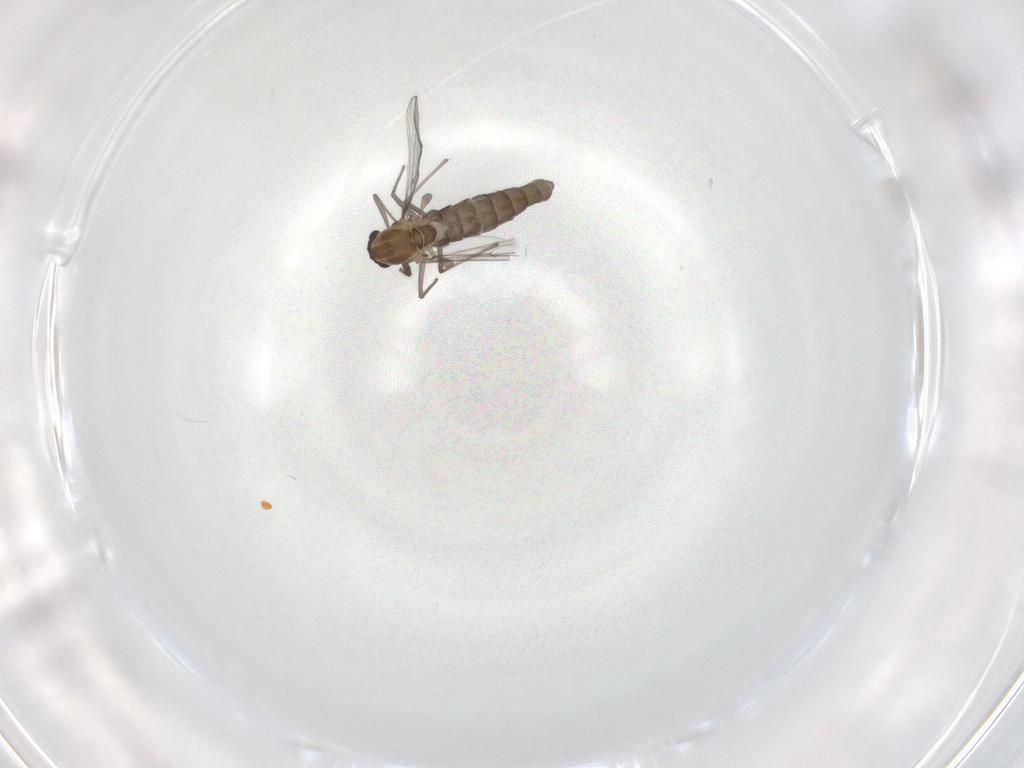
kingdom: Animalia
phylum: Arthropoda
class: Insecta
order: Diptera
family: Chironomidae
